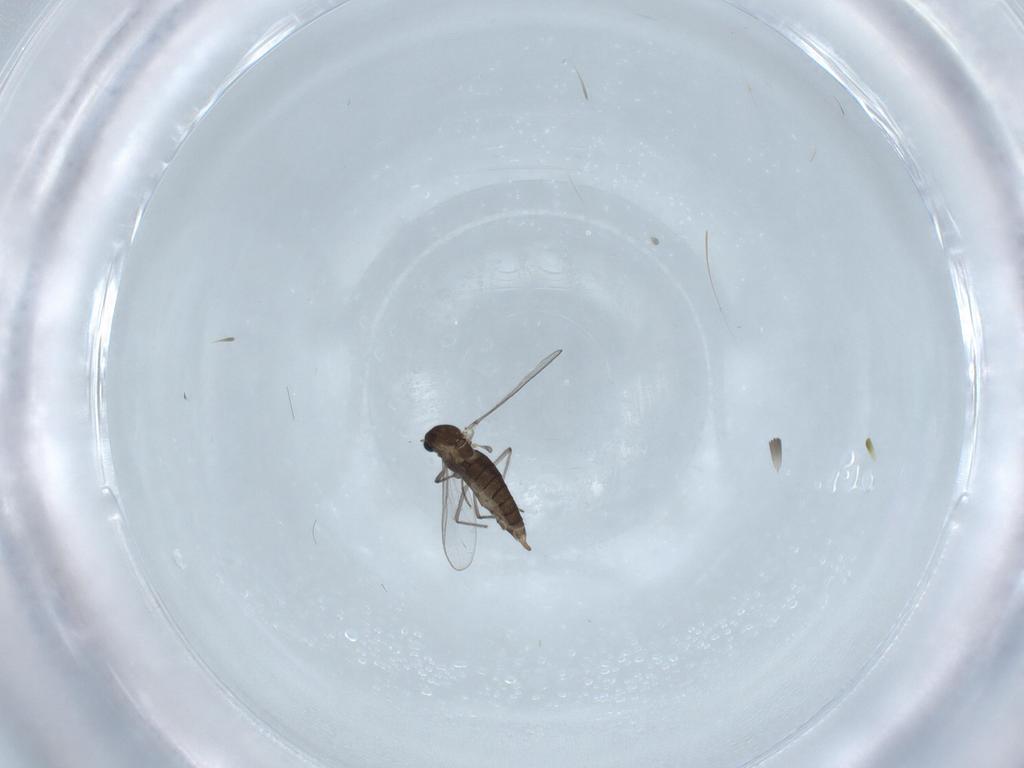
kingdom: Animalia
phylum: Arthropoda
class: Insecta
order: Diptera
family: Chironomidae
